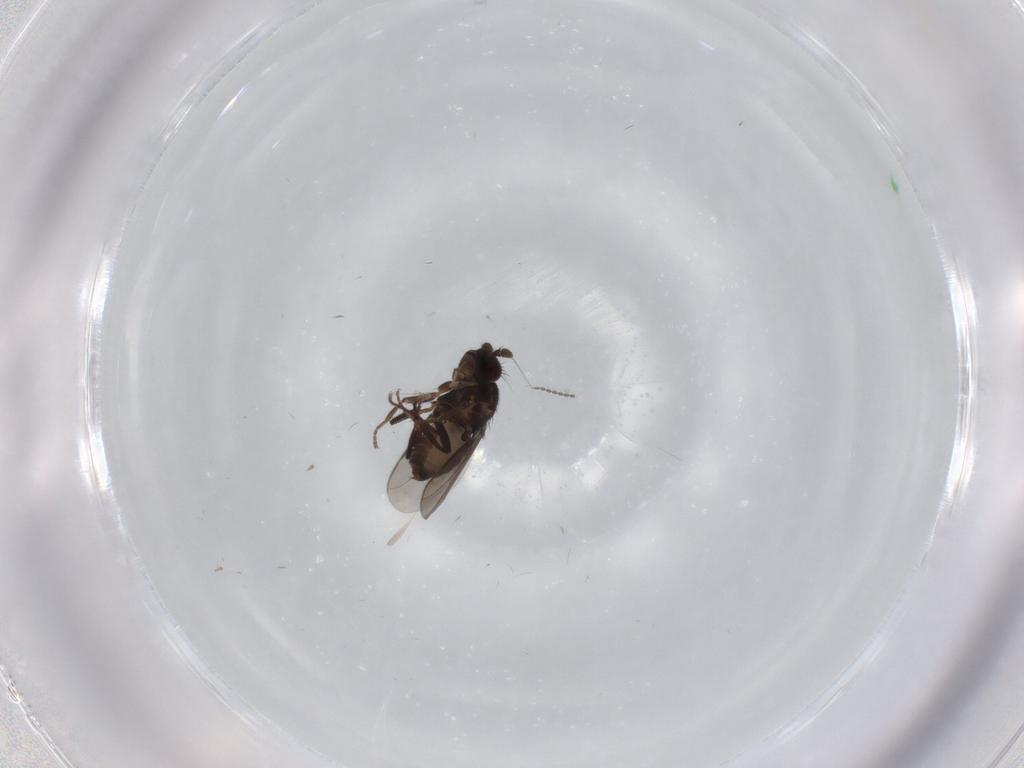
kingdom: Animalia
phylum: Arthropoda
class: Insecta
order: Diptera
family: Sphaeroceridae
